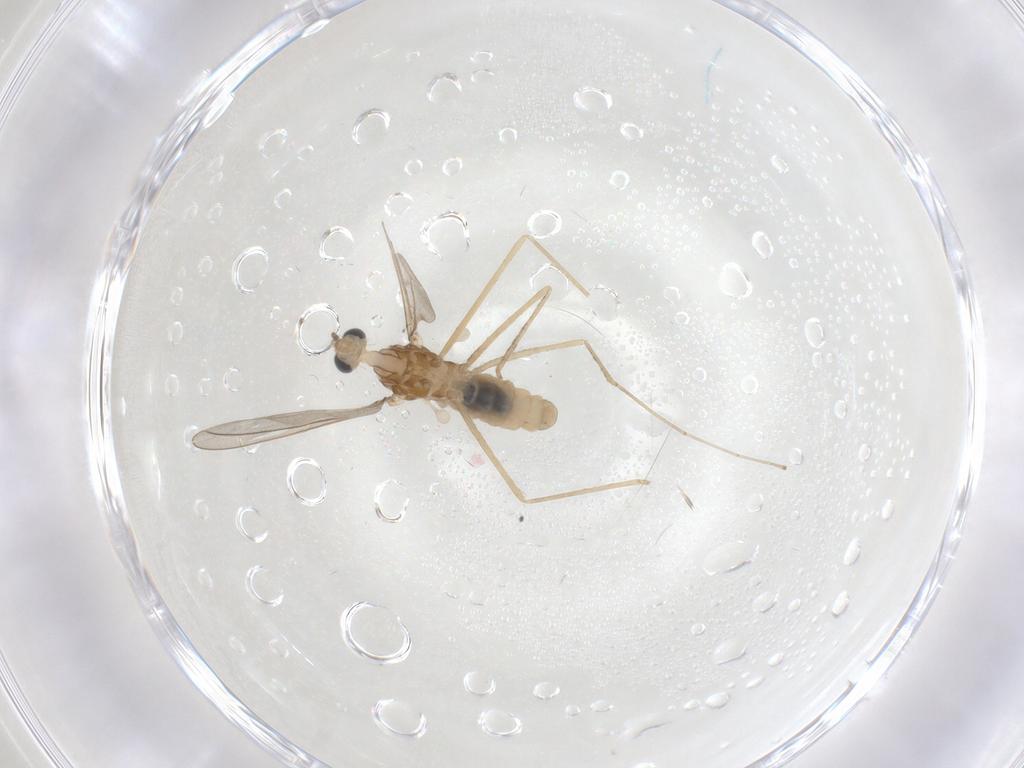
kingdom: Animalia
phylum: Arthropoda
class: Insecta
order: Diptera
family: Cecidomyiidae
